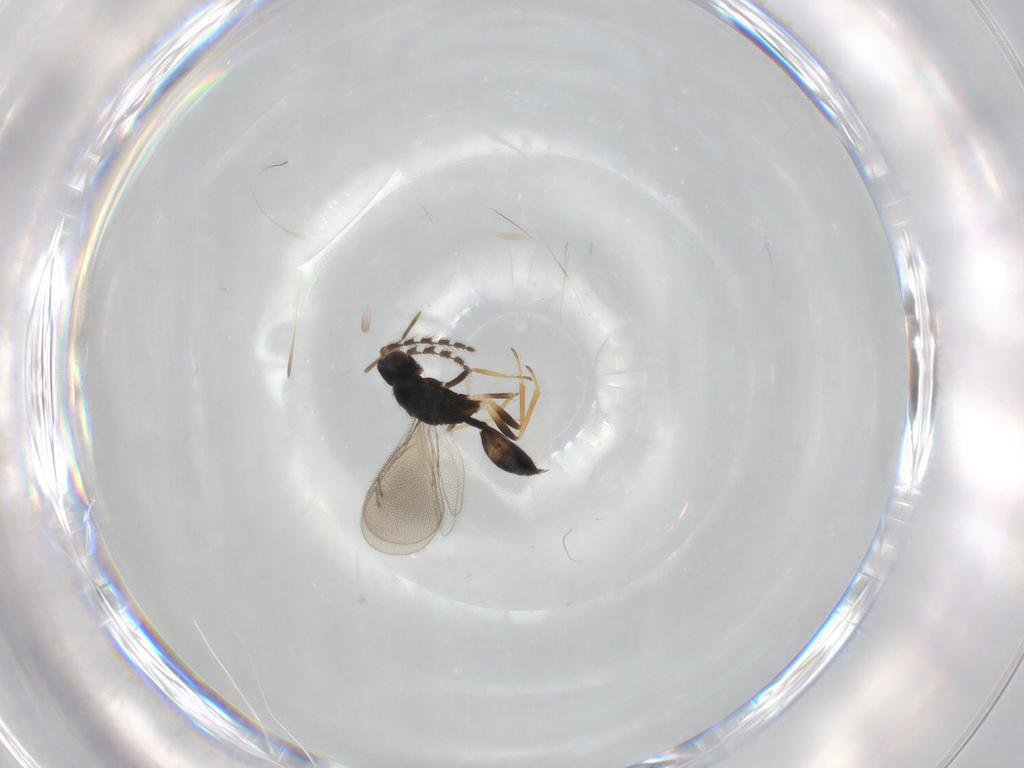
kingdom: Animalia
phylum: Arthropoda
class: Insecta
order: Hymenoptera
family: Eulophidae
